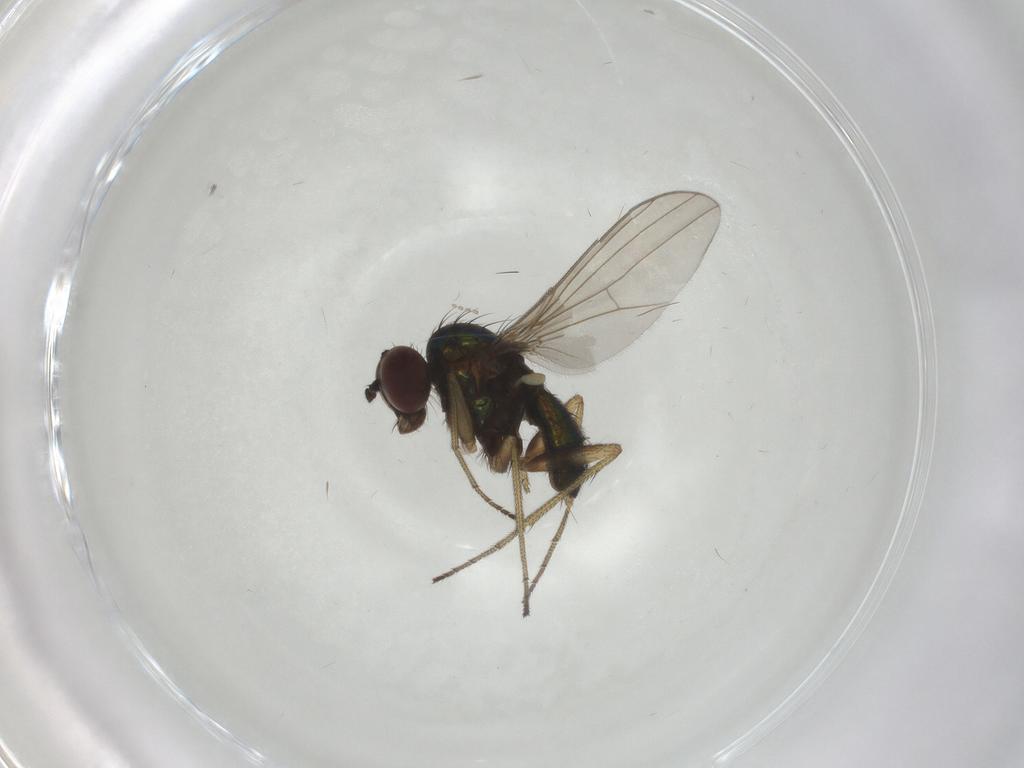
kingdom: Animalia
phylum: Arthropoda
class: Insecta
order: Diptera
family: Dolichopodidae
